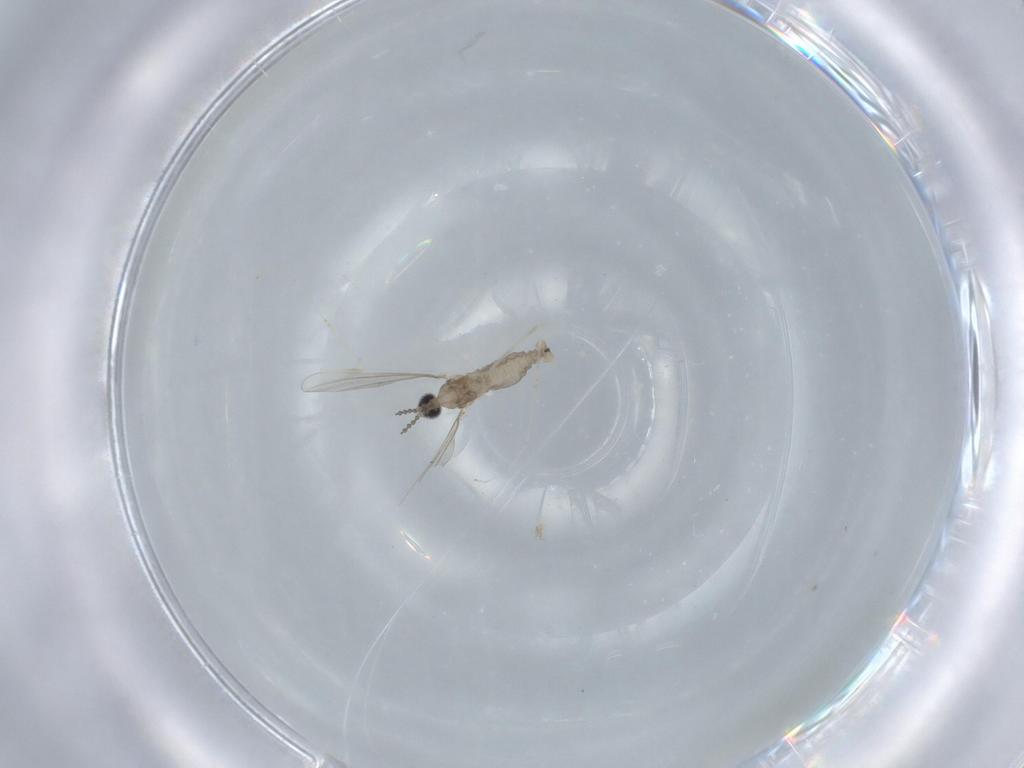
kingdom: Animalia
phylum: Arthropoda
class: Insecta
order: Diptera
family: Cecidomyiidae
